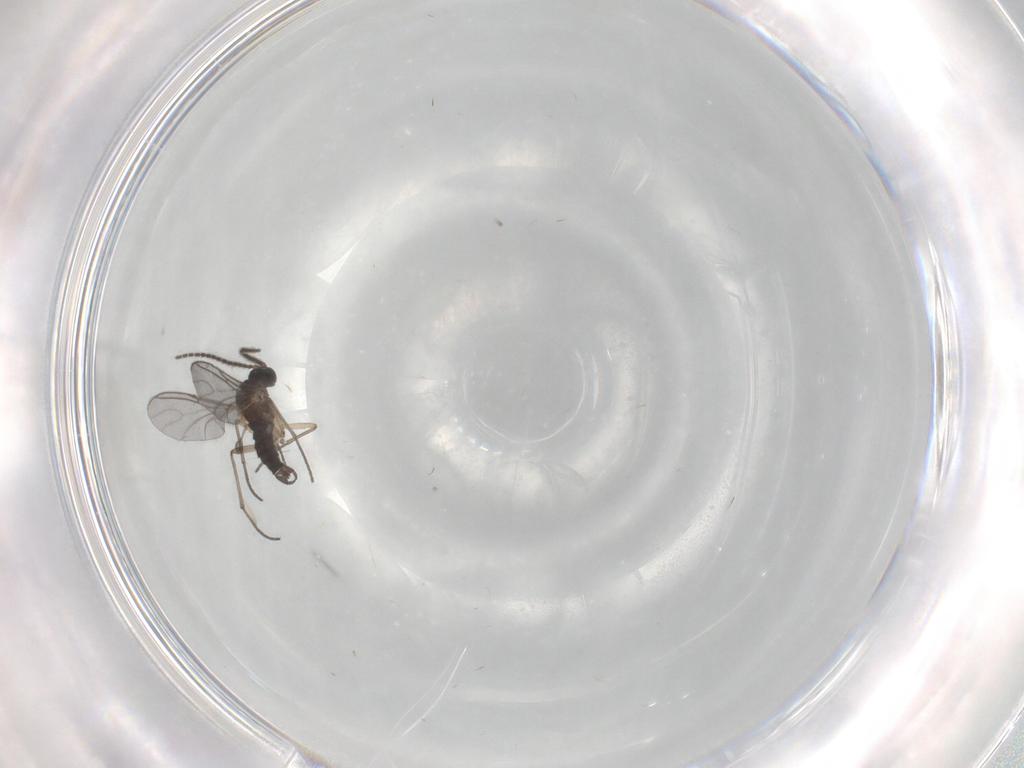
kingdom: Animalia
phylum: Arthropoda
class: Insecta
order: Diptera
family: Sciaridae
